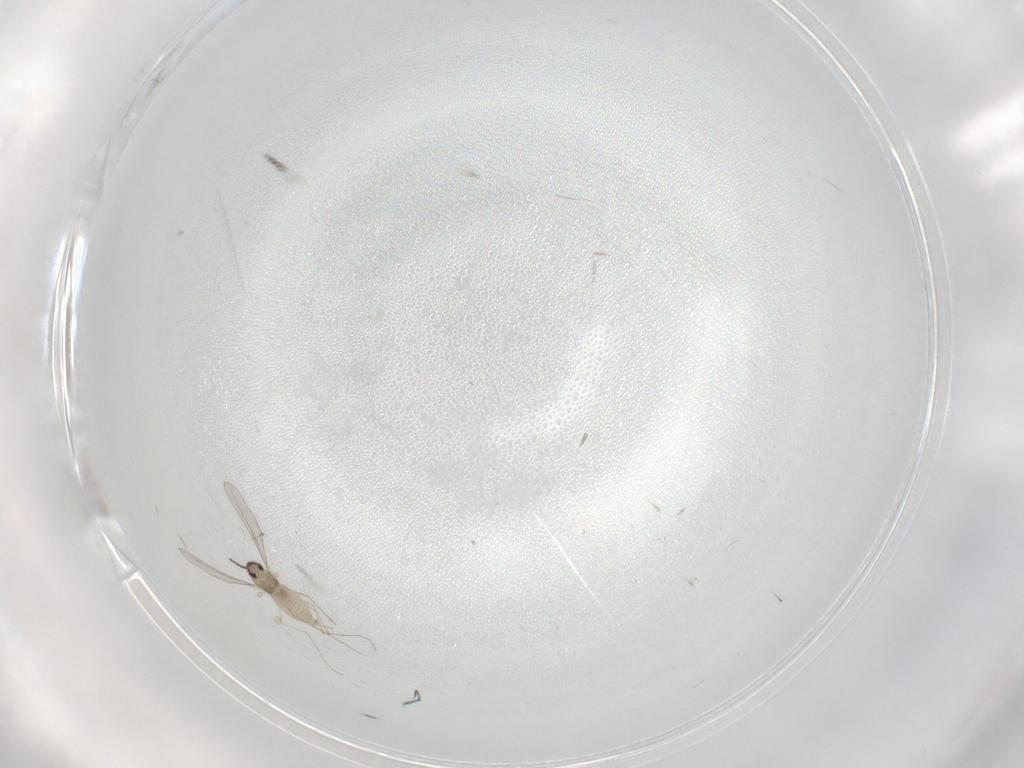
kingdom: Animalia
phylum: Arthropoda
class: Insecta
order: Diptera
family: Cecidomyiidae
